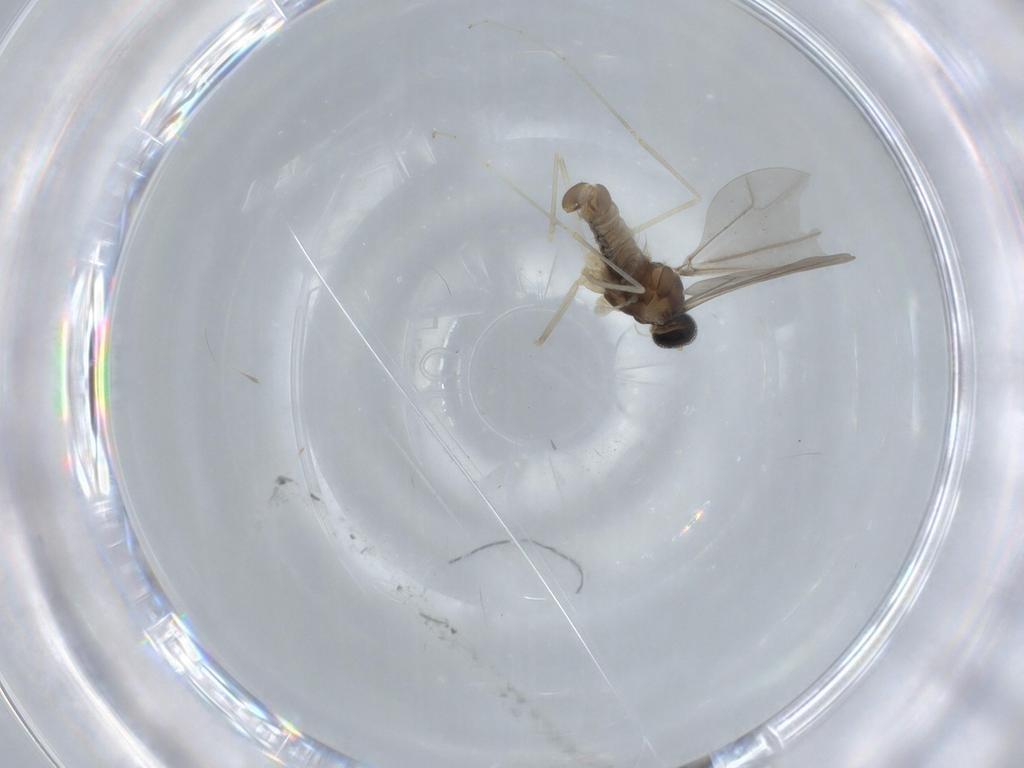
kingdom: Animalia
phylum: Arthropoda
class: Insecta
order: Diptera
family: Cecidomyiidae
